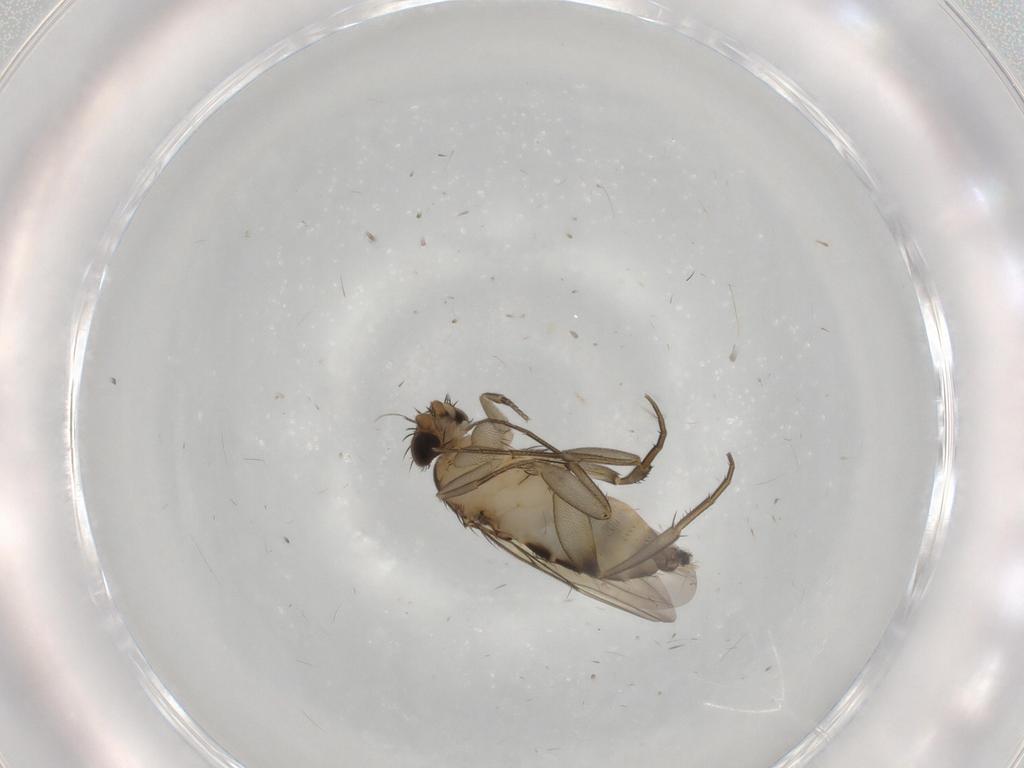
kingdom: Animalia
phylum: Arthropoda
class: Insecta
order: Diptera
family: Phoridae
